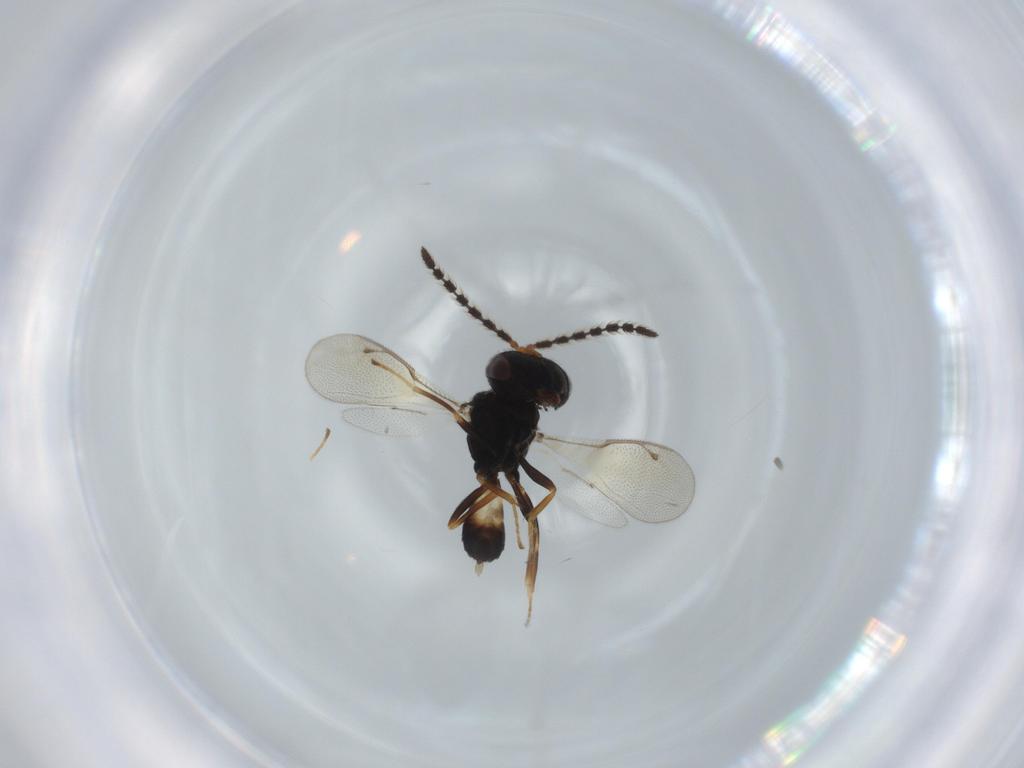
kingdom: Animalia
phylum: Arthropoda
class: Insecta
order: Hymenoptera
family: Pteromalidae
